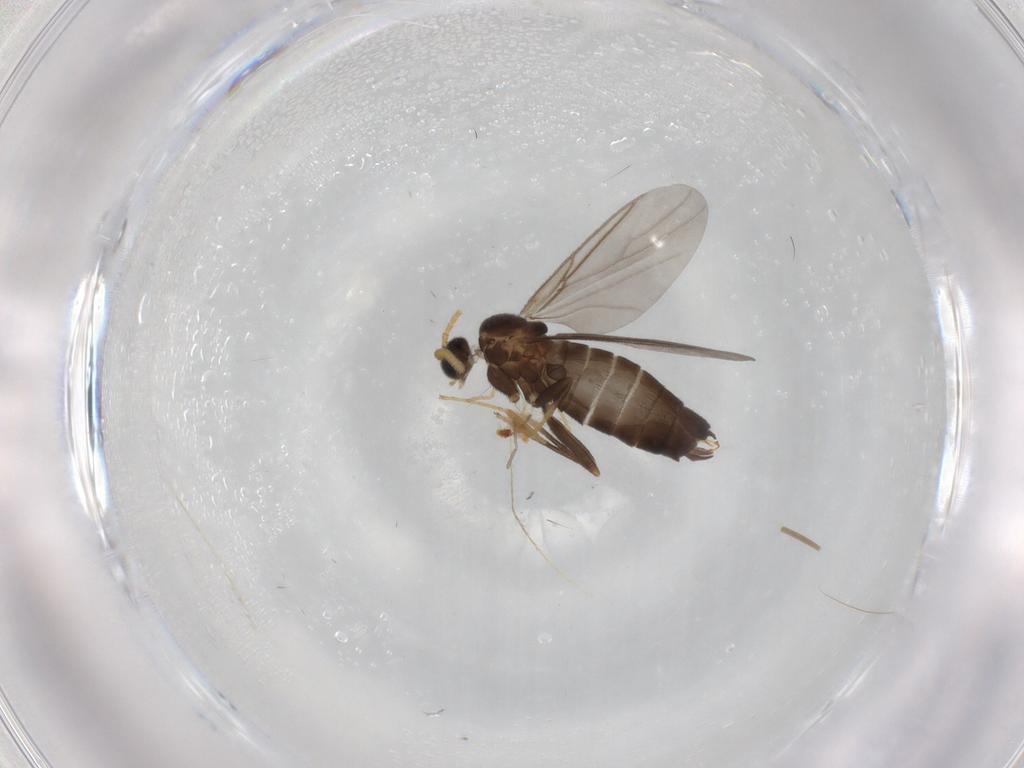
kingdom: Animalia
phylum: Arthropoda
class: Insecta
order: Diptera
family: Scatopsidae
